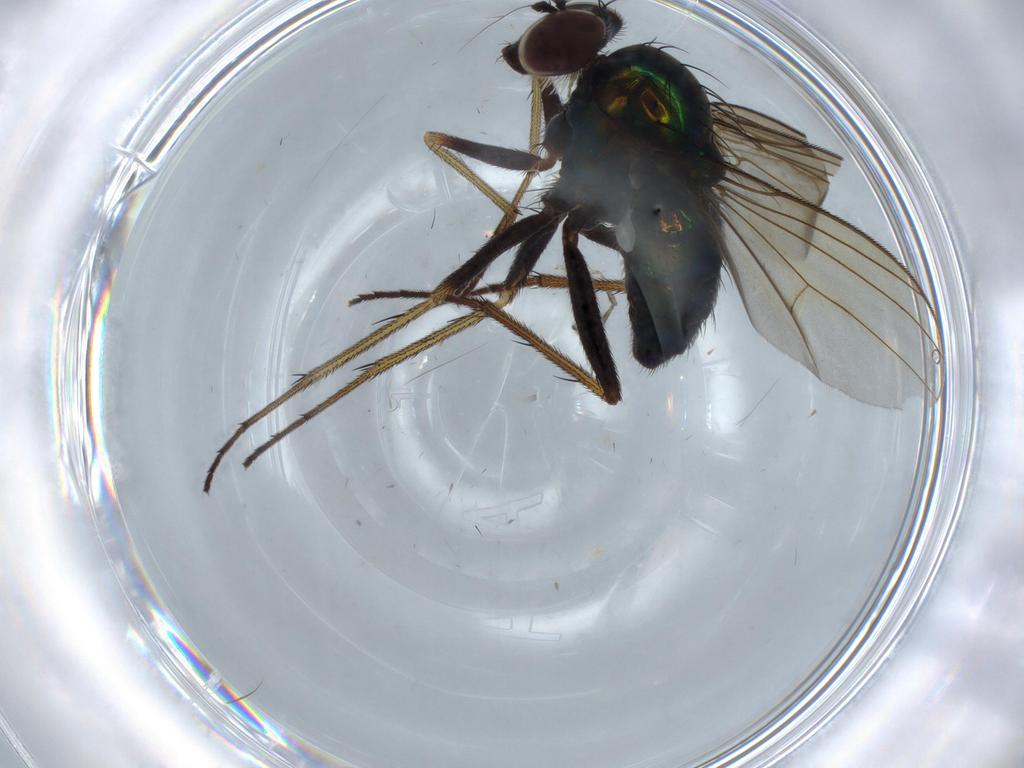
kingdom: Animalia
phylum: Arthropoda
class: Insecta
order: Diptera
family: Dolichopodidae
